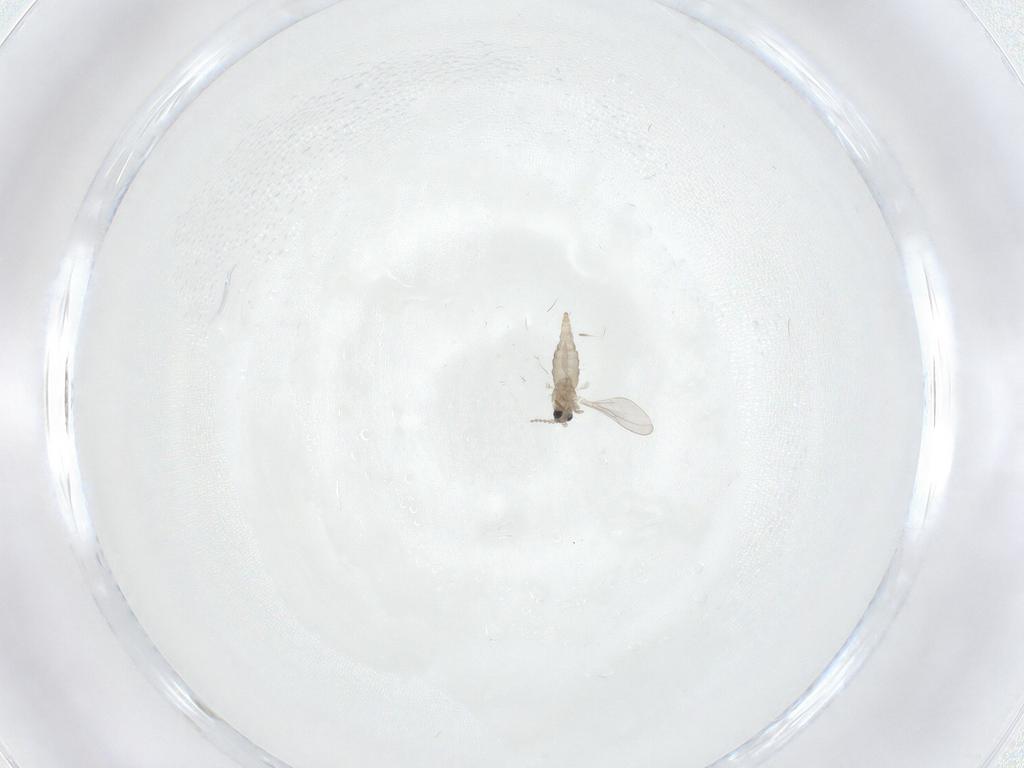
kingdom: Animalia
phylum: Arthropoda
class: Insecta
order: Diptera
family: Cecidomyiidae
